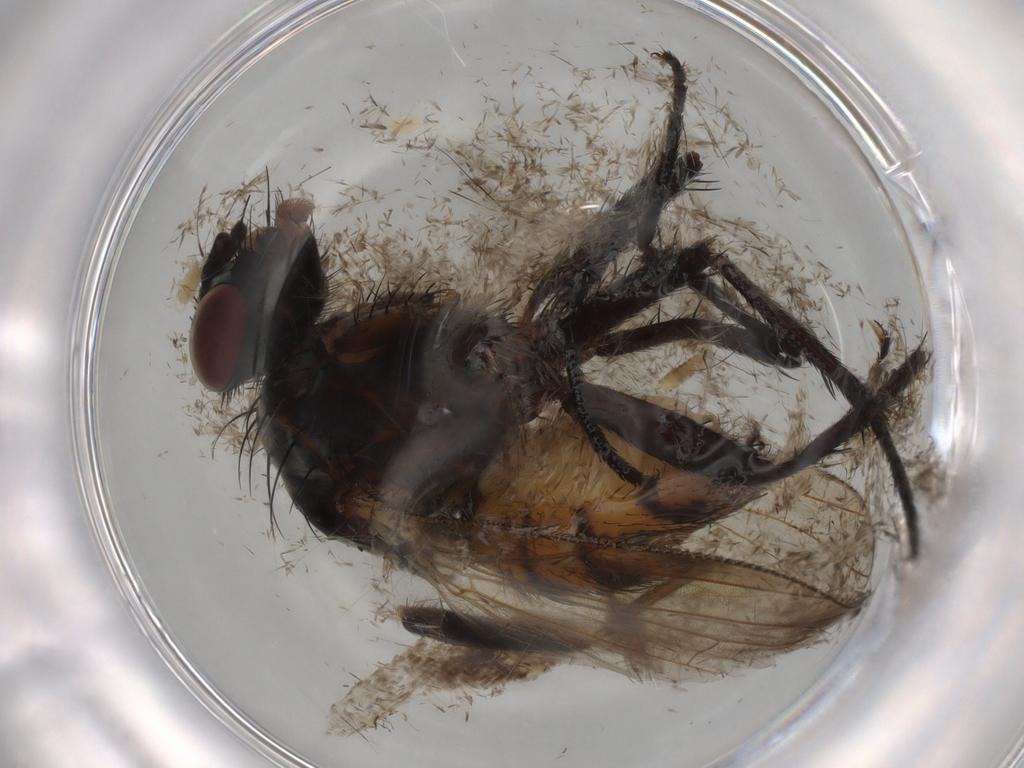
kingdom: Animalia
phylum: Arthropoda
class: Insecta
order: Diptera
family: Anthomyiidae
